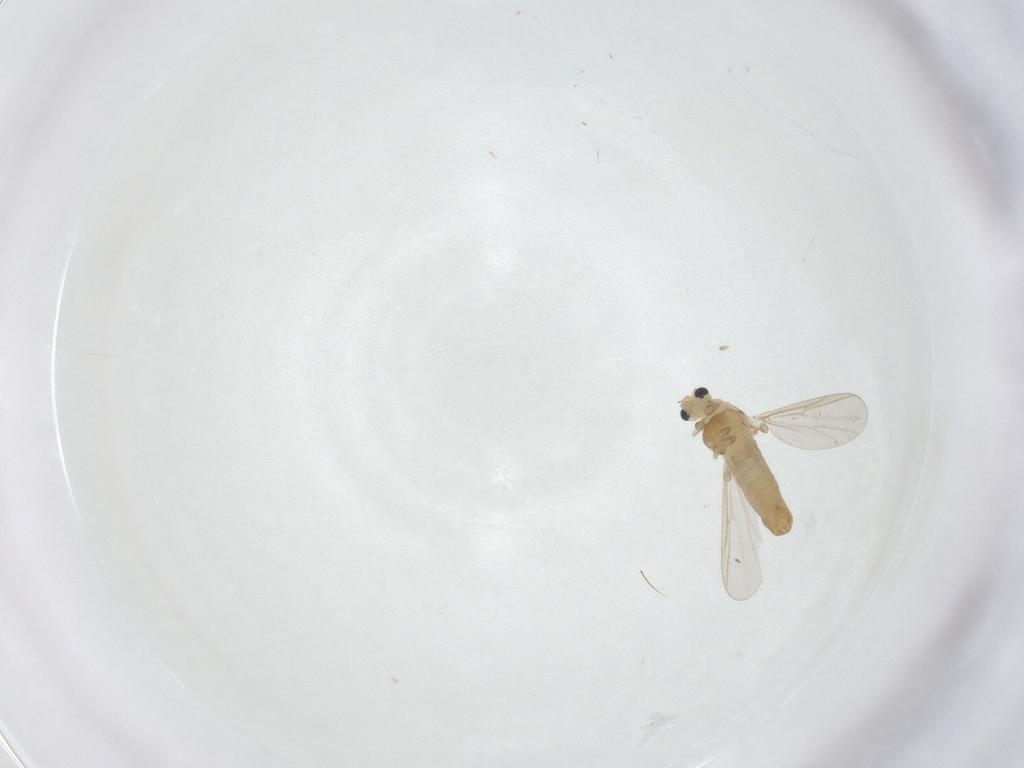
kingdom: Animalia
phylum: Arthropoda
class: Insecta
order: Diptera
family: Chironomidae
